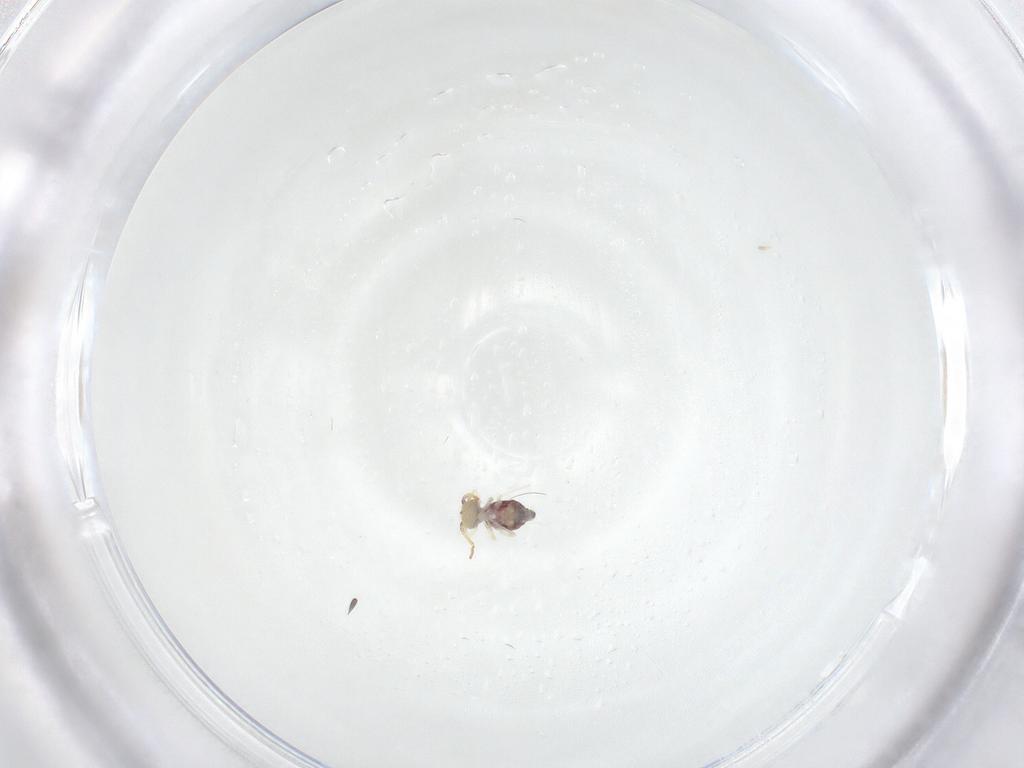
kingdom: Animalia
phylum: Arthropoda
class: Collembola
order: Symphypleona
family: Bourletiellidae
